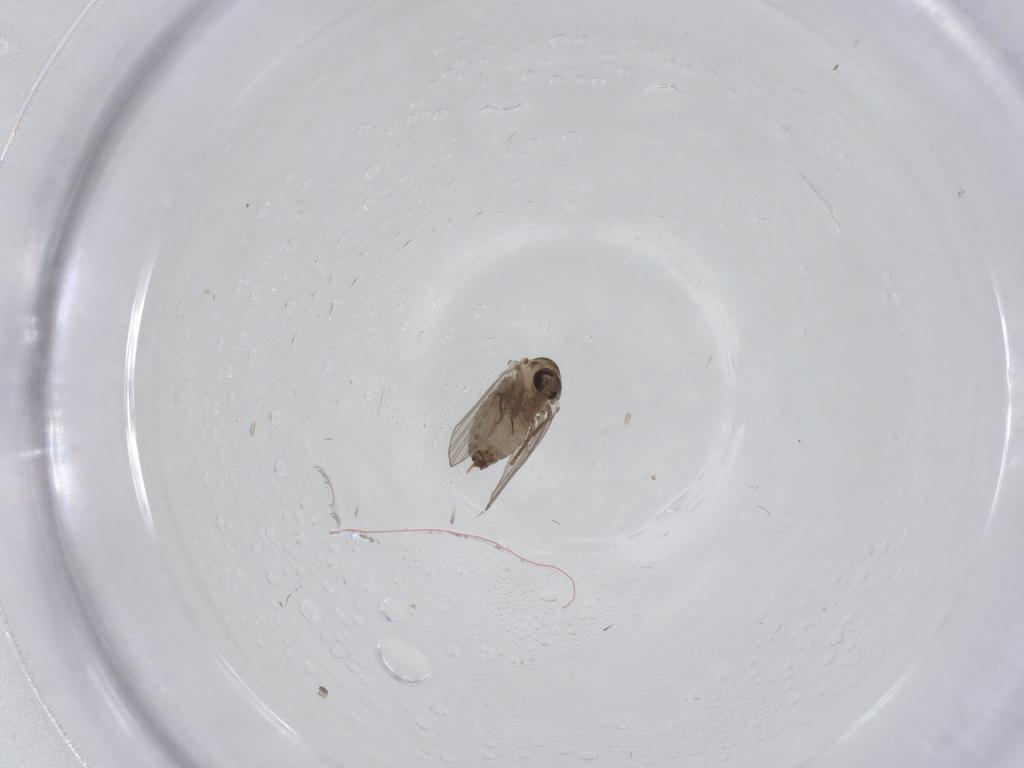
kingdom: Animalia
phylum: Arthropoda
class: Insecta
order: Diptera
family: Psychodidae
